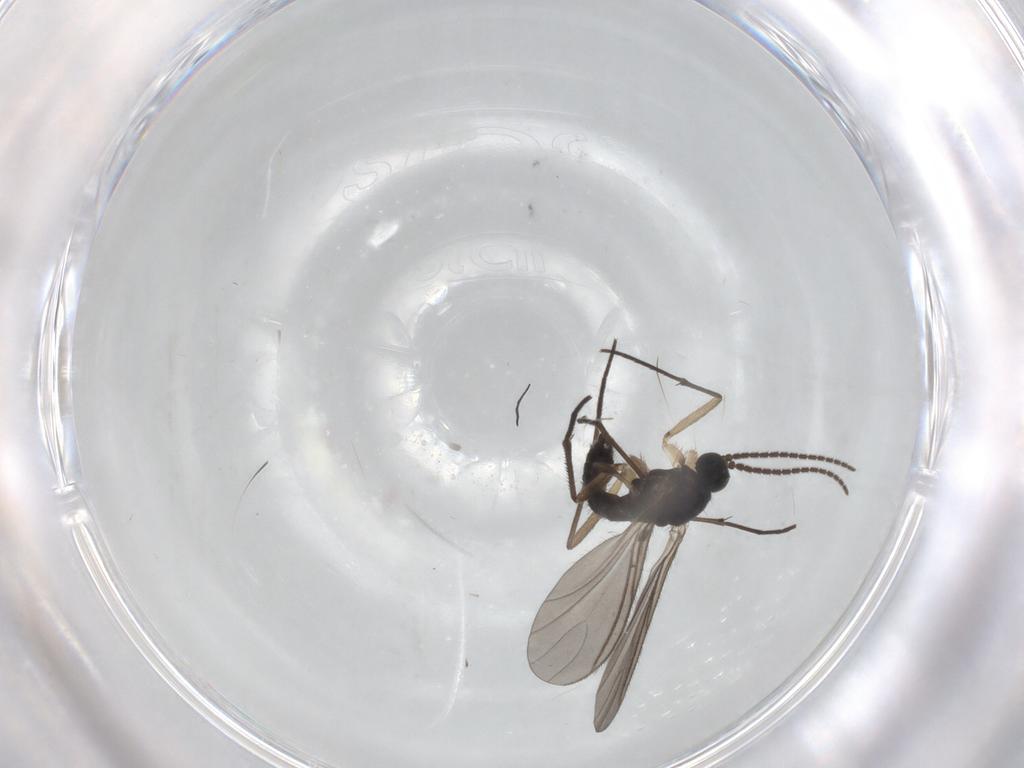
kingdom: Animalia
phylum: Arthropoda
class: Insecta
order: Diptera
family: Sciaridae
